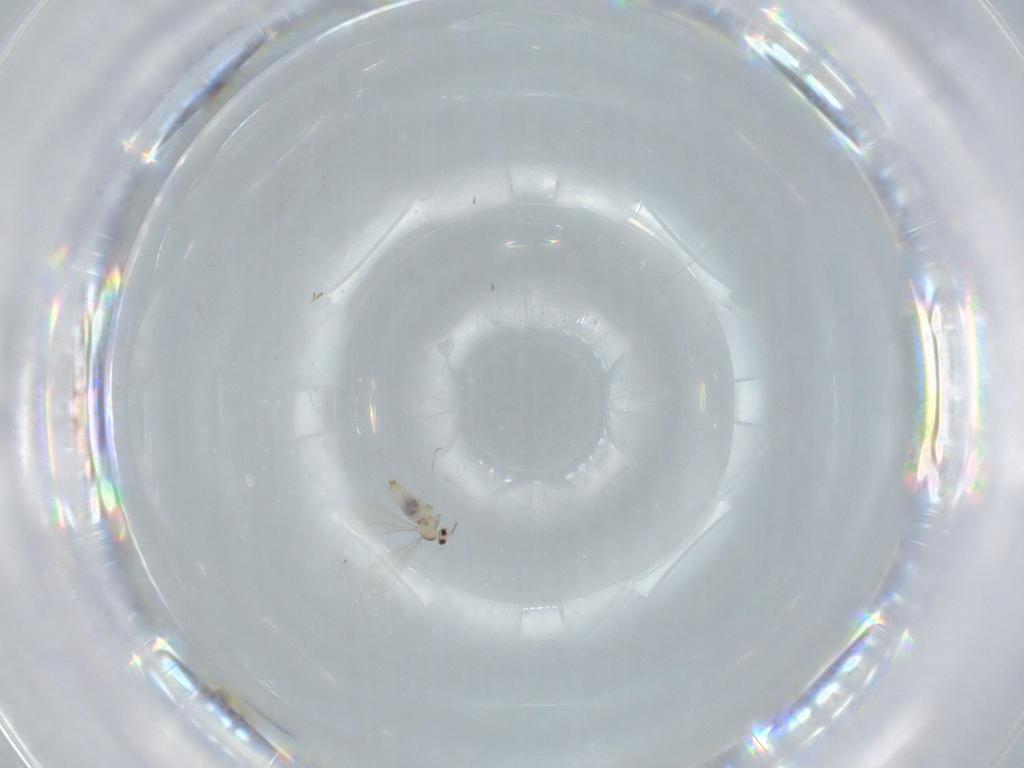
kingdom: Animalia
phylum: Arthropoda
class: Insecta
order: Diptera
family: Cecidomyiidae
